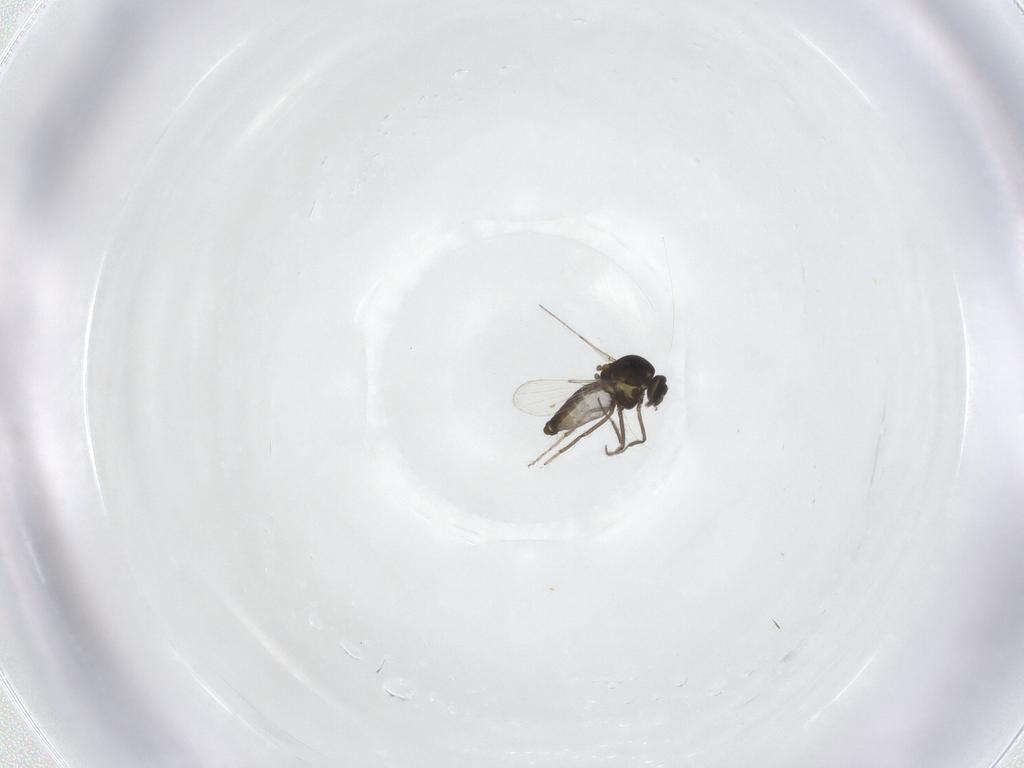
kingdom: Animalia
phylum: Arthropoda
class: Insecta
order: Diptera
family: Ceratopogonidae
